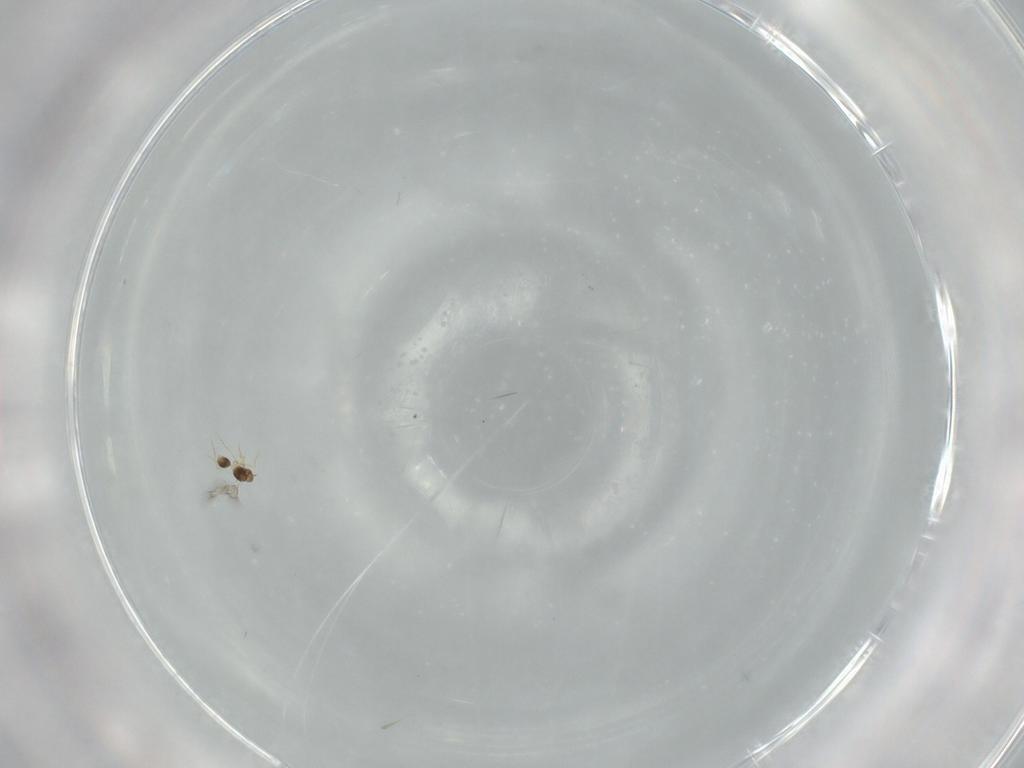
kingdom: Animalia
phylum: Arthropoda
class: Insecta
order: Hymenoptera
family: Mymarommatidae
